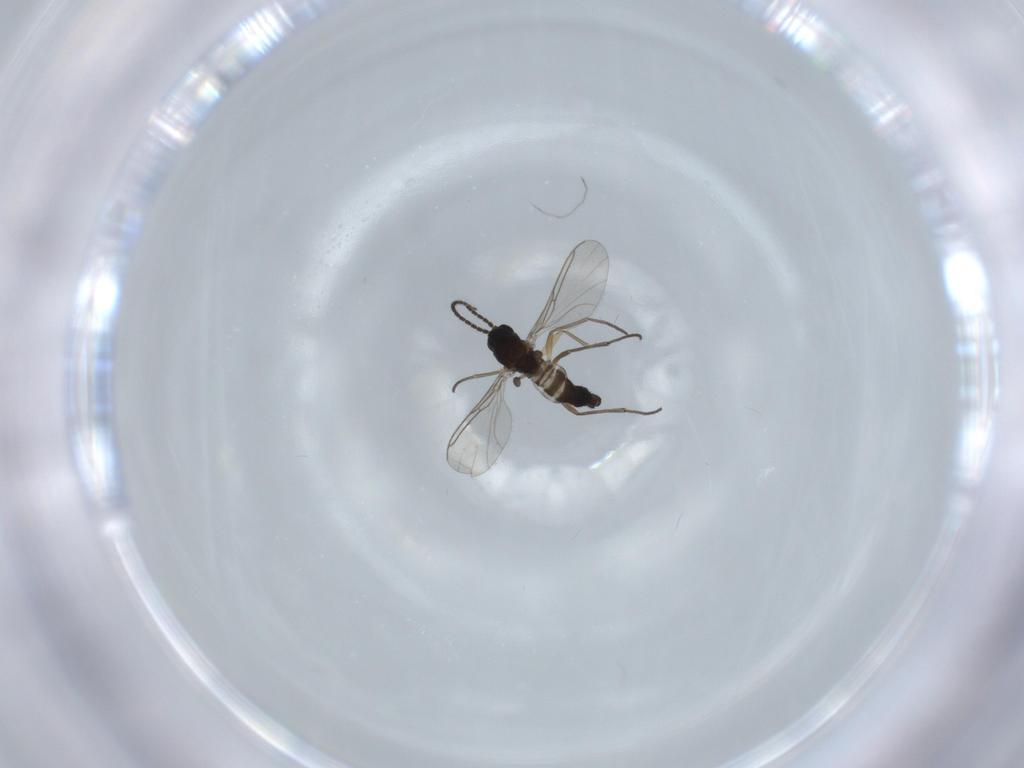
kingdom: Animalia
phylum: Arthropoda
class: Insecta
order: Diptera
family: Sciaridae
